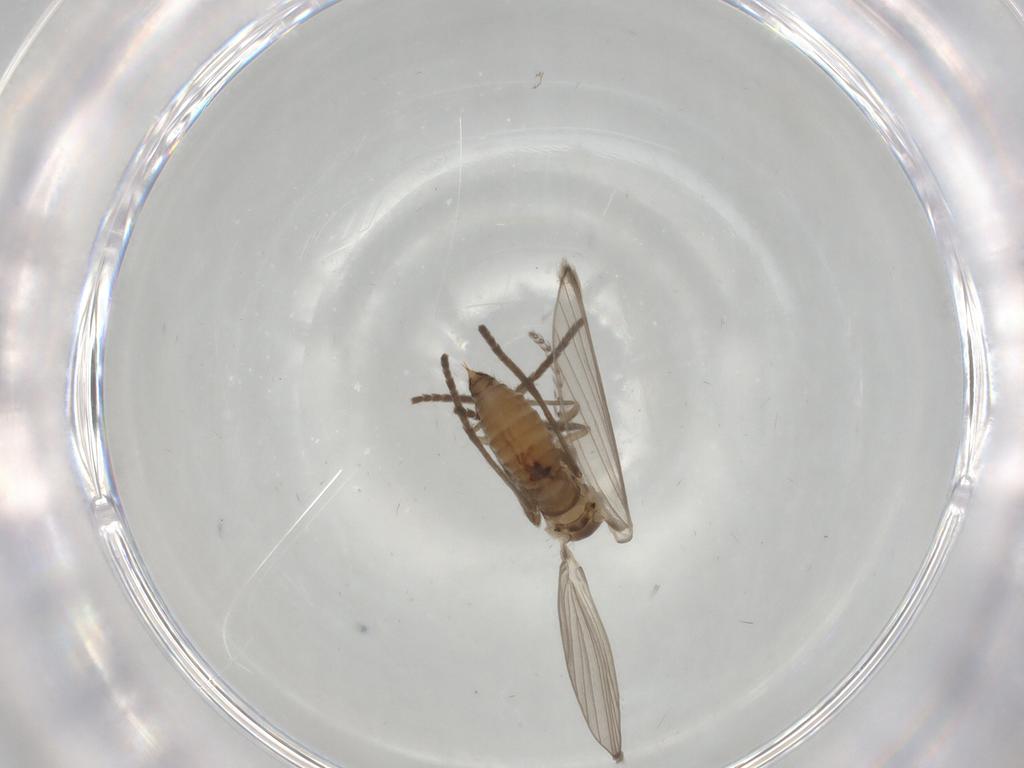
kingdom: Animalia
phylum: Arthropoda
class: Insecta
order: Diptera
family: Psychodidae
